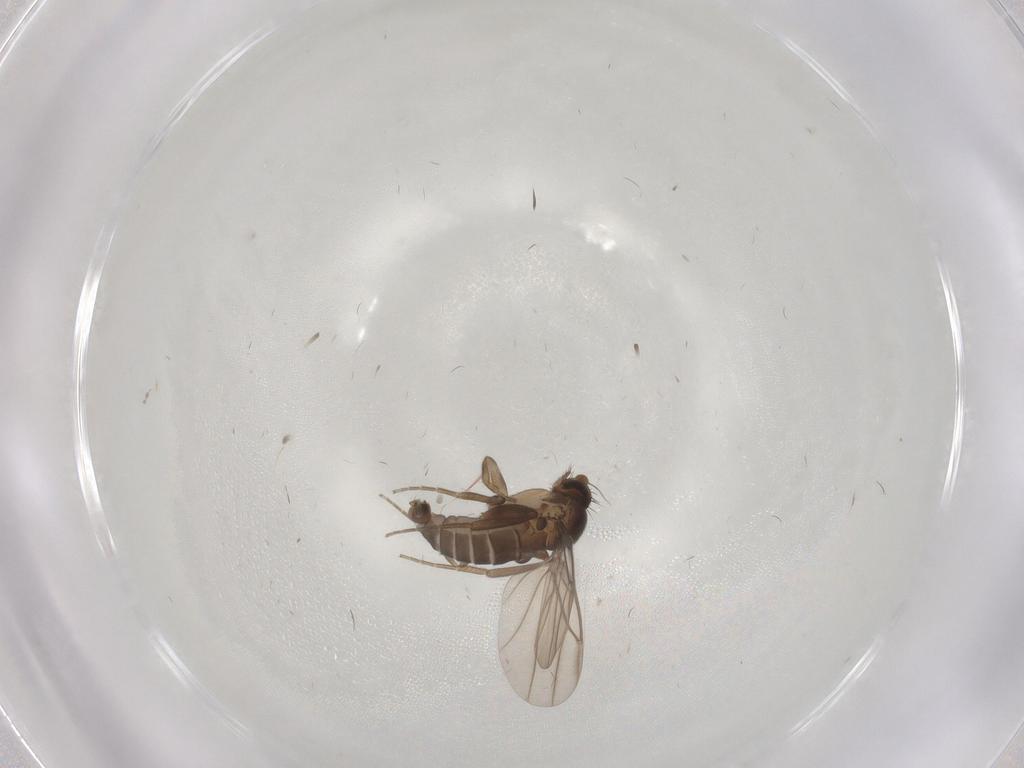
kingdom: Animalia
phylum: Arthropoda
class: Insecta
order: Diptera
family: Phoridae
